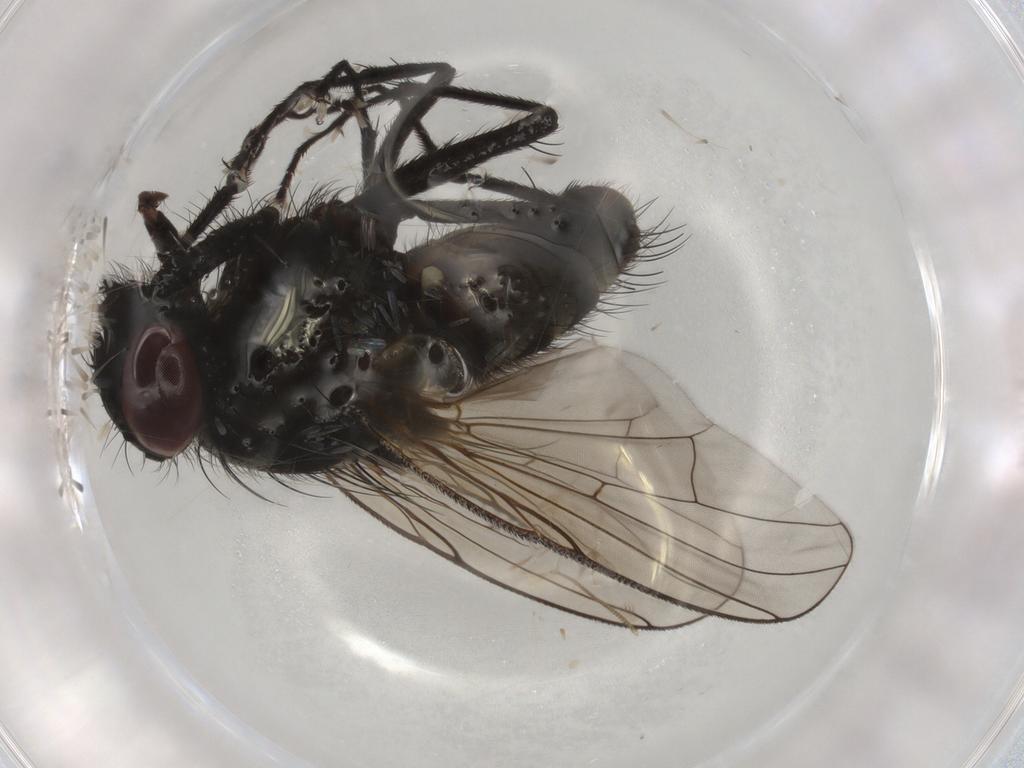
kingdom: Animalia
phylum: Arthropoda
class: Insecta
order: Diptera
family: Muscidae
